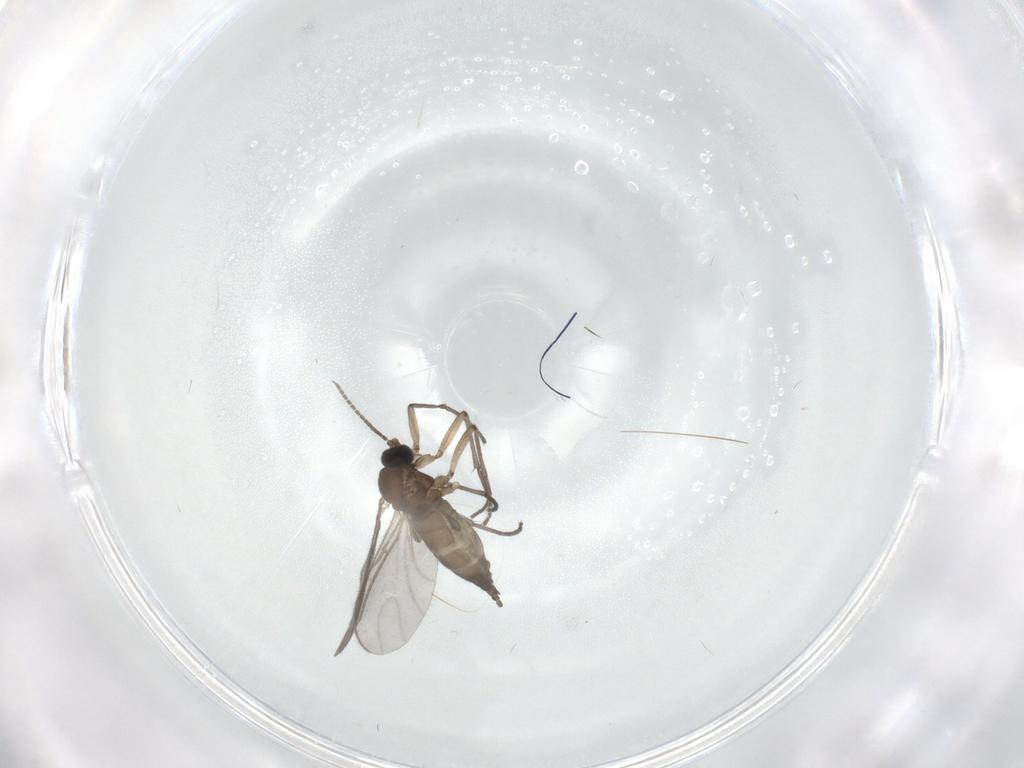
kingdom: Animalia
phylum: Arthropoda
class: Insecta
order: Diptera
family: Sciaridae
